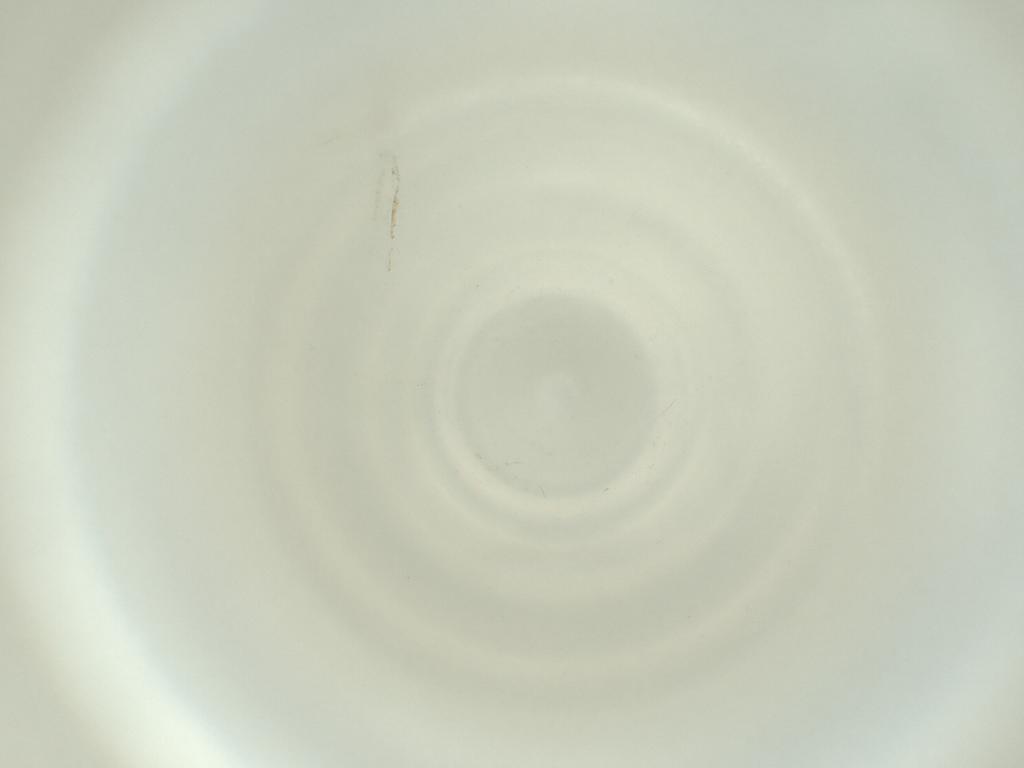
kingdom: Animalia
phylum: Arthropoda
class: Insecta
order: Diptera
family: Cecidomyiidae
